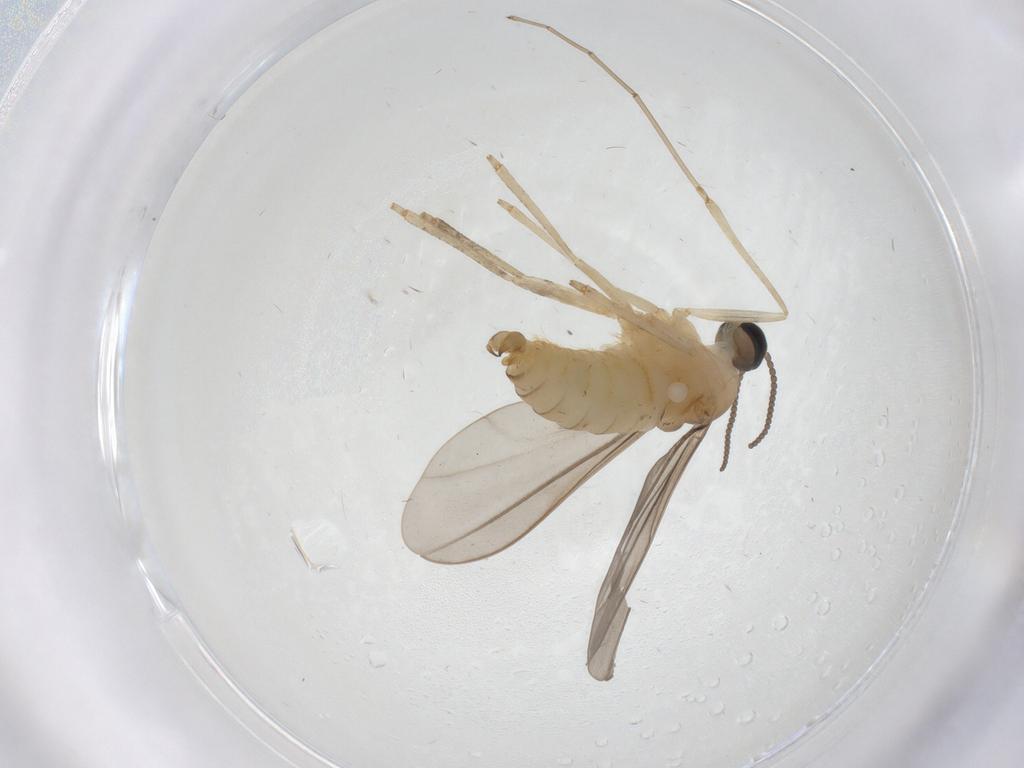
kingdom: Animalia
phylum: Arthropoda
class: Insecta
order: Diptera
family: Cecidomyiidae
